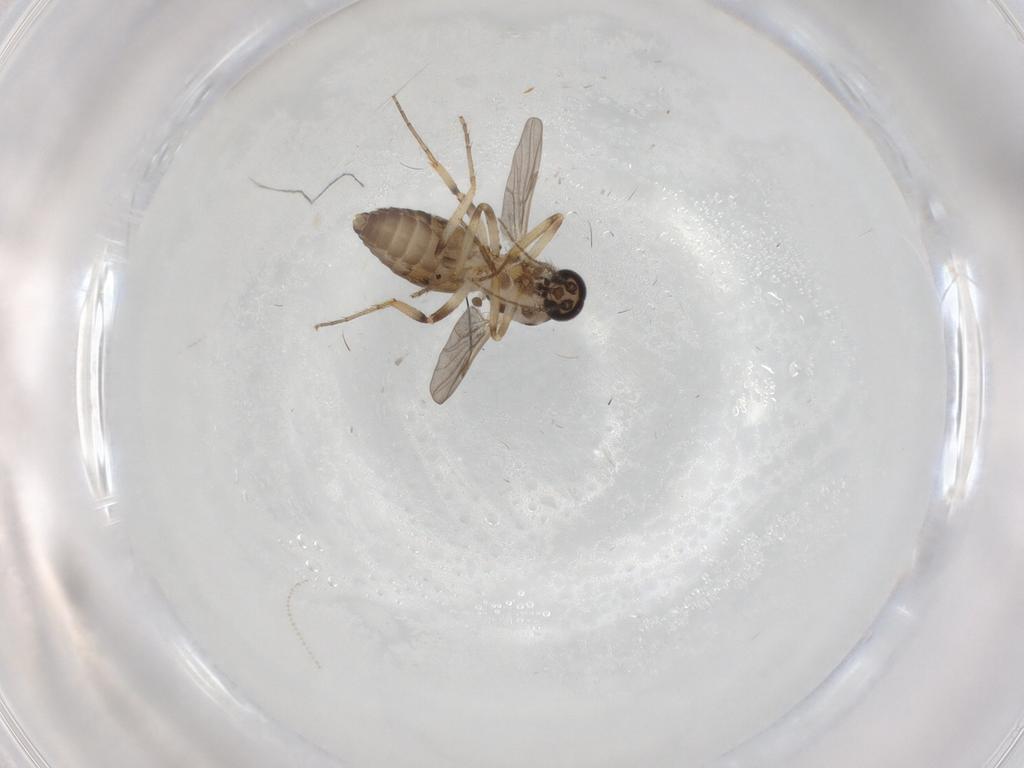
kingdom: Animalia
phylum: Arthropoda
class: Insecta
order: Diptera
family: Ceratopogonidae
